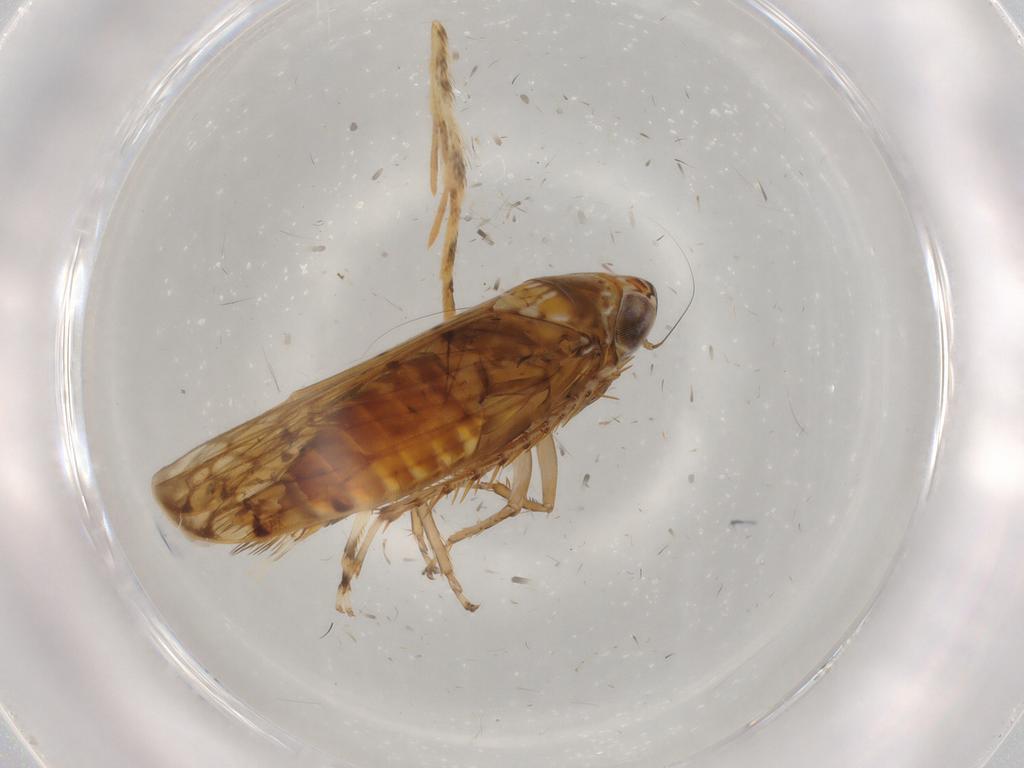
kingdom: Animalia
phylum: Arthropoda
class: Insecta
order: Hemiptera
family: Cicadellidae
